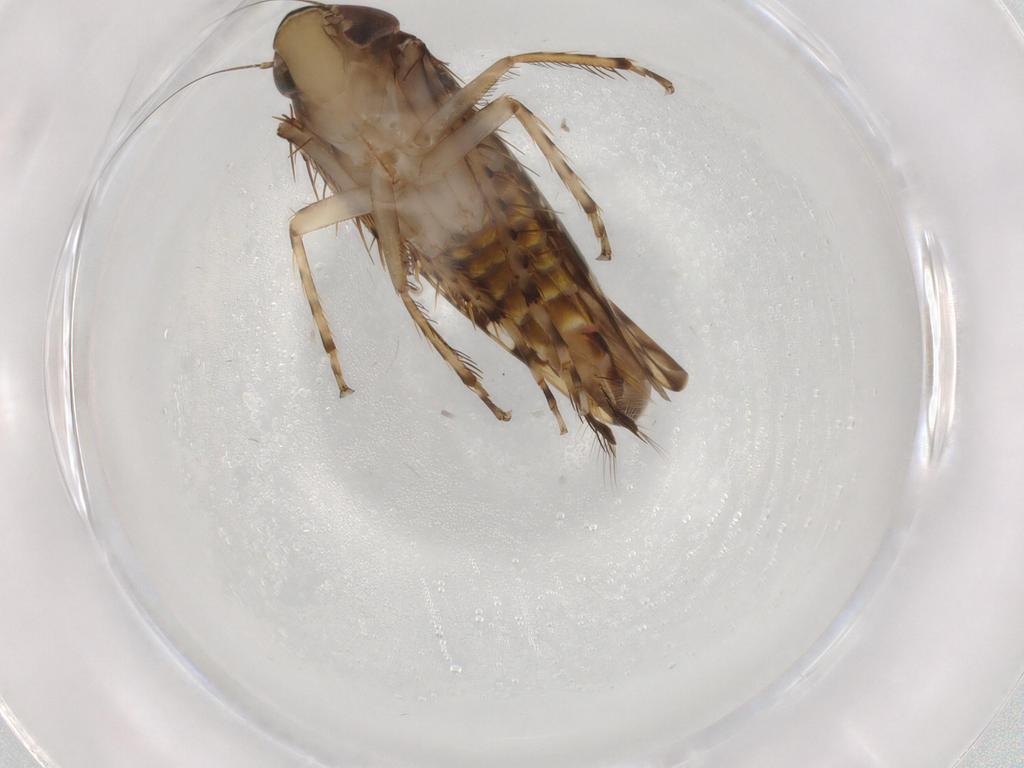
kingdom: Animalia
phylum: Arthropoda
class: Insecta
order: Hemiptera
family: Cicadellidae
